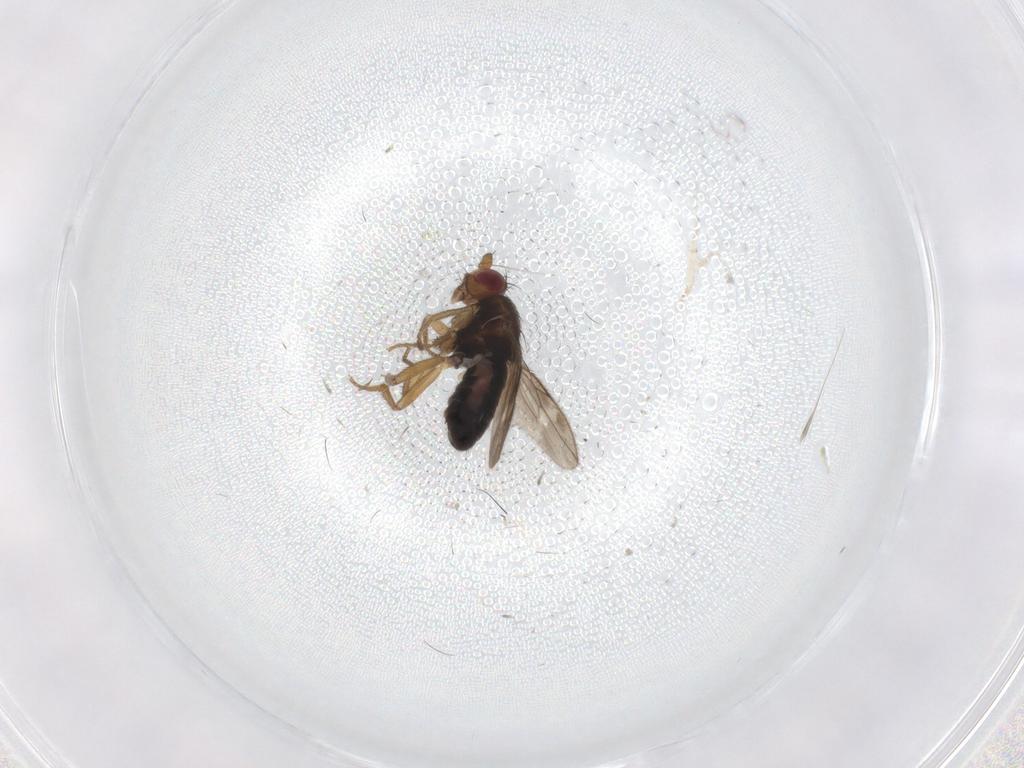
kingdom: Animalia
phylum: Arthropoda
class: Insecta
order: Diptera
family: Sphaeroceridae
